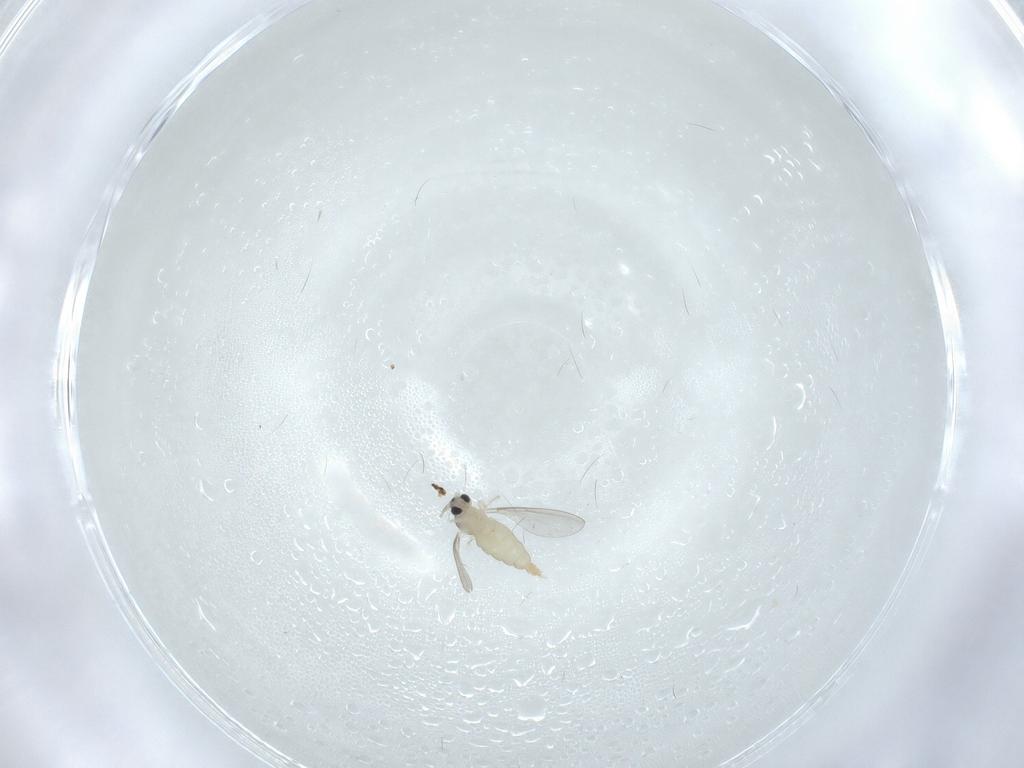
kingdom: Animalia
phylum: Arthropoda
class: Insecta
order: Diptera
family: Cecidomyiidae
